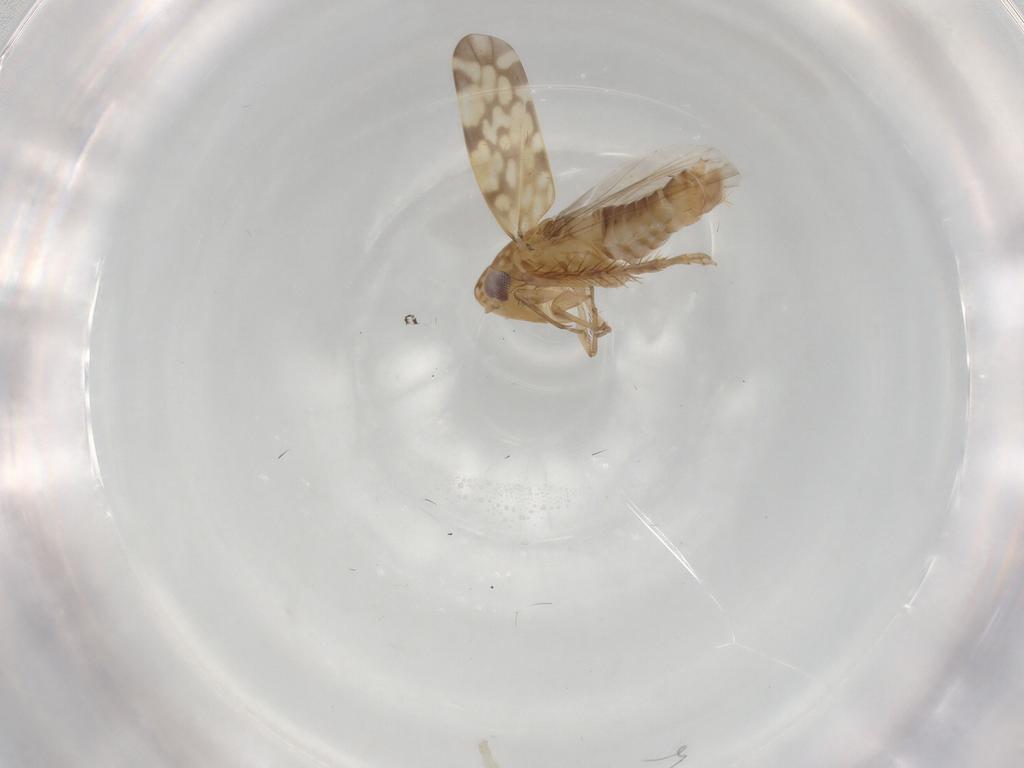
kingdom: Animalia
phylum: Arthropoda
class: Insecta
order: Hemiptera
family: Cicadellidae
